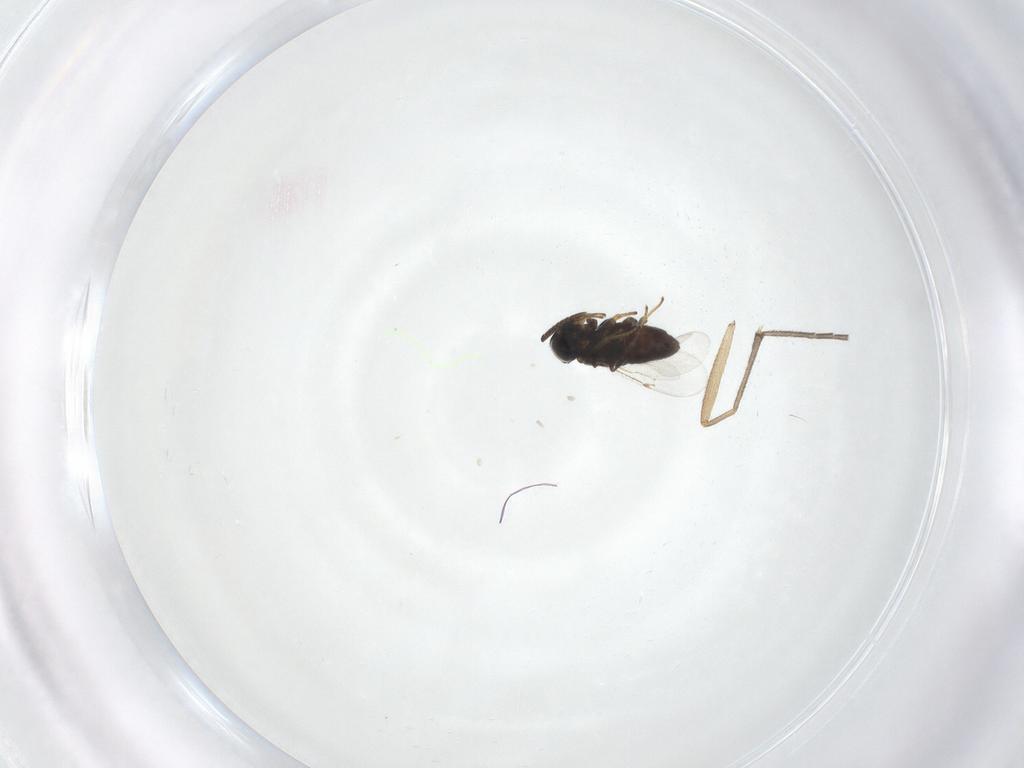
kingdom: Animalia
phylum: Arthropoda
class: Insecta
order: Hymenoptera
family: Encyrtidae
